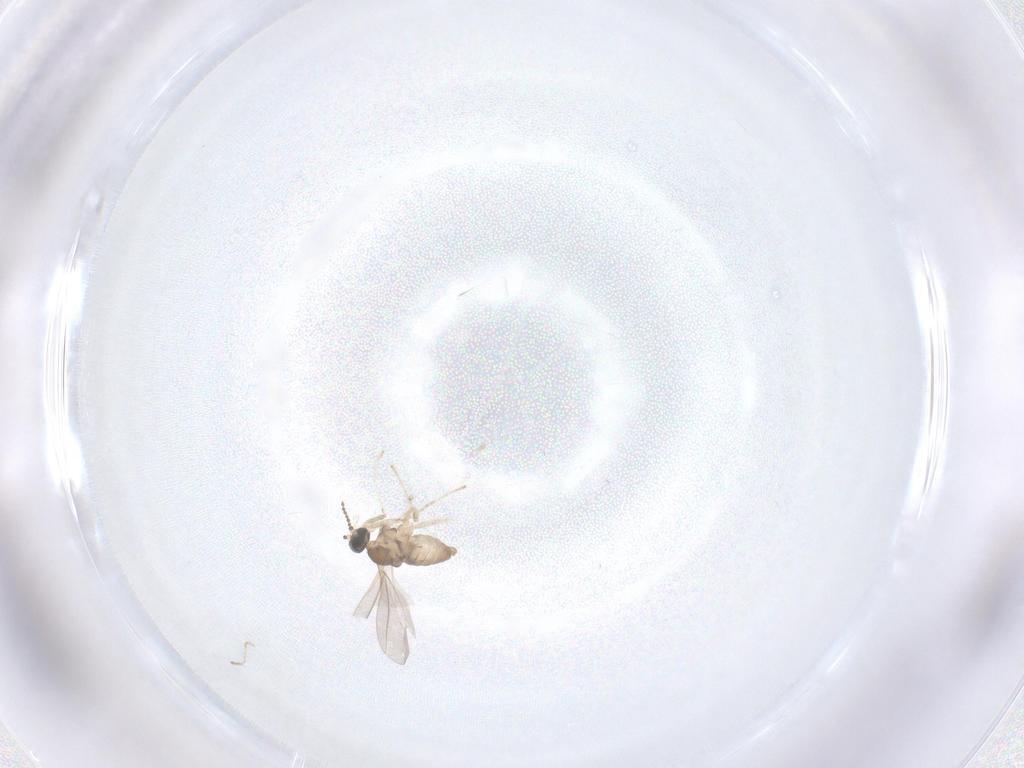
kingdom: Animalia
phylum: Arthropoda
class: Insecta
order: Diptera
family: Cecidomyiidae
